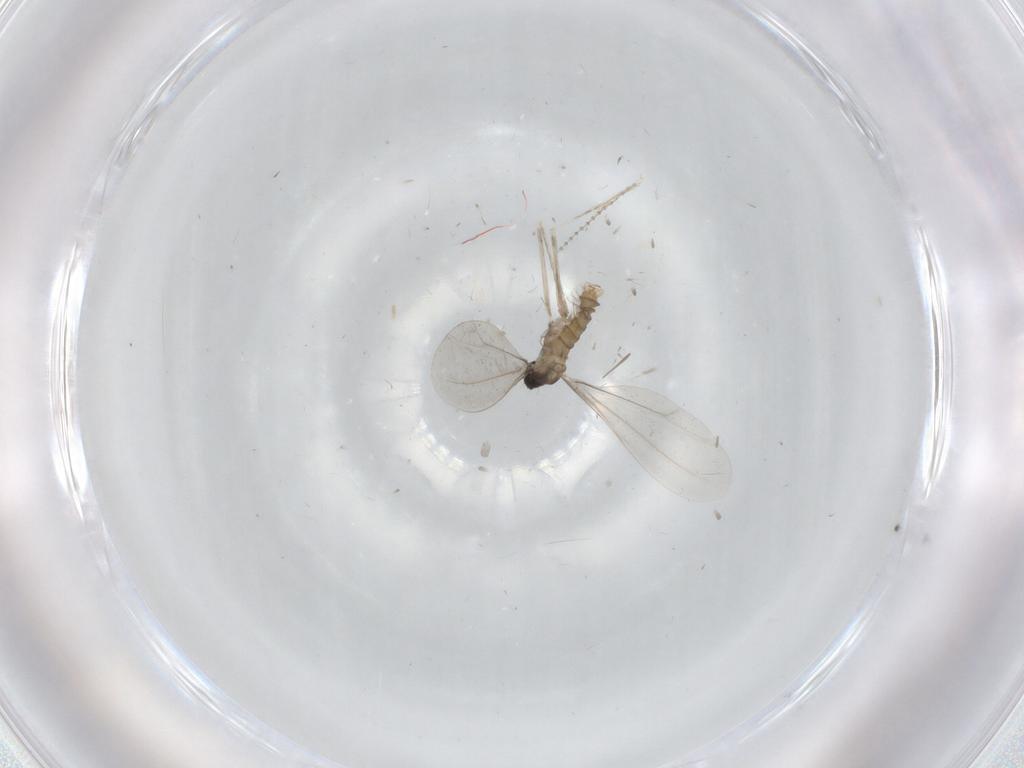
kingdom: Animalia
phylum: Arthropoda
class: Insecta
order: Diptera
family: Cecidomyiidae
